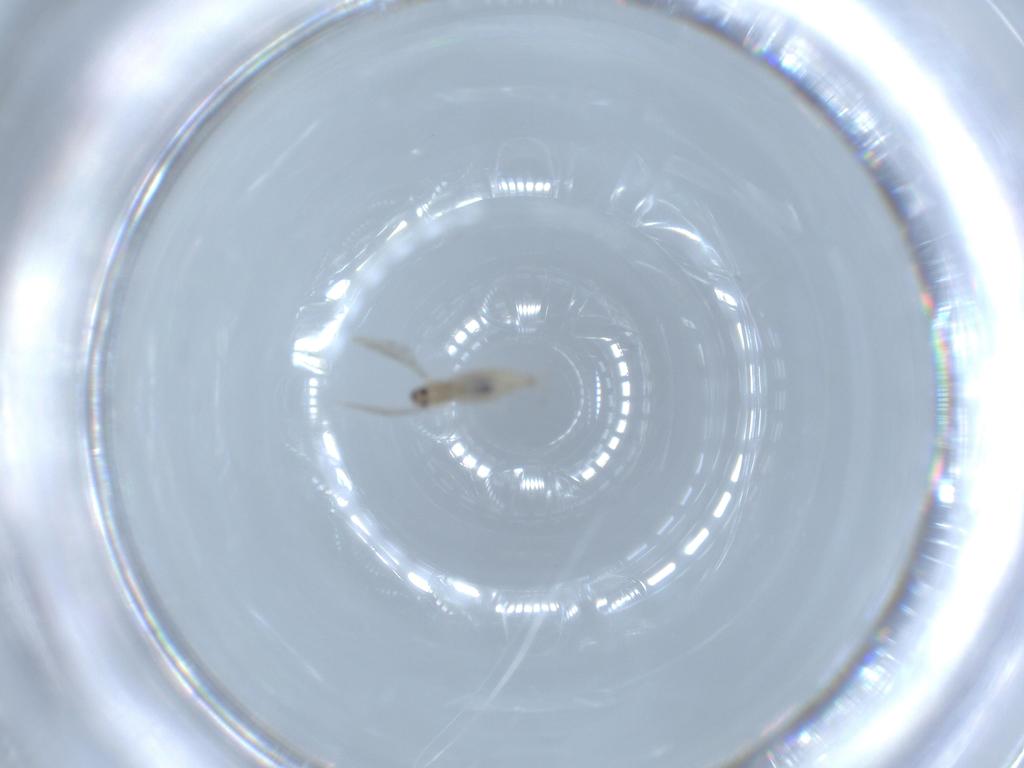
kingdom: Animalia
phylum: Arthropoda
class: Insecta
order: Diptera
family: Cecidomyiidae
